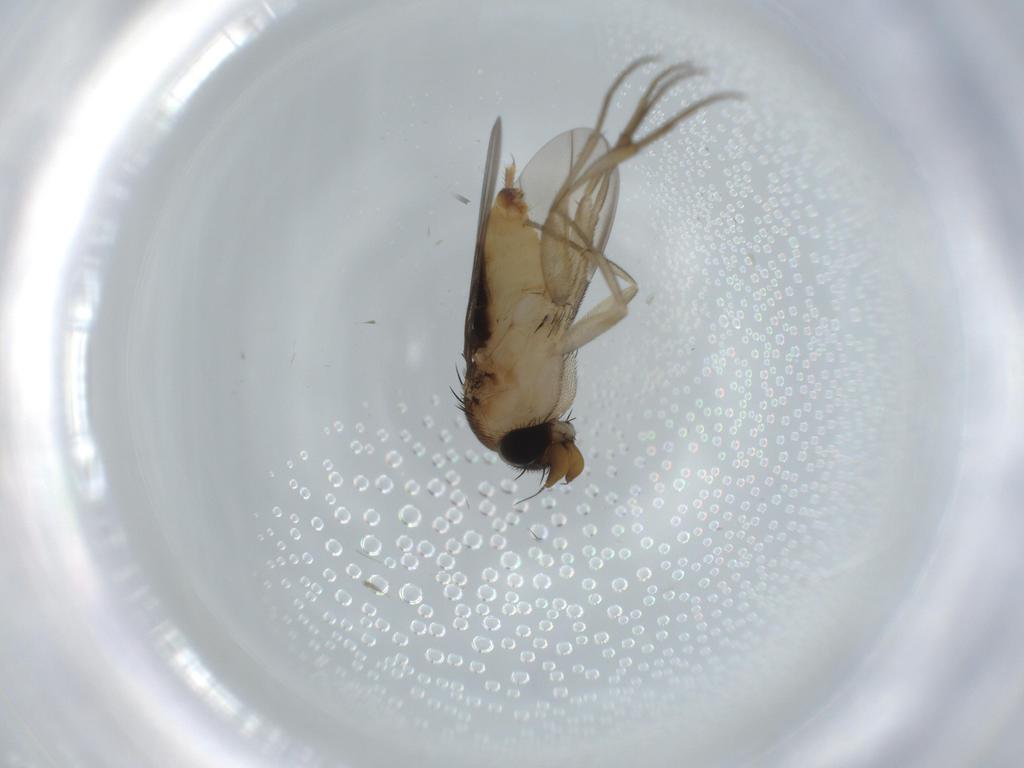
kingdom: Animalia
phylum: Arthropoda
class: Insecta
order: Diptera
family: Phoridae
